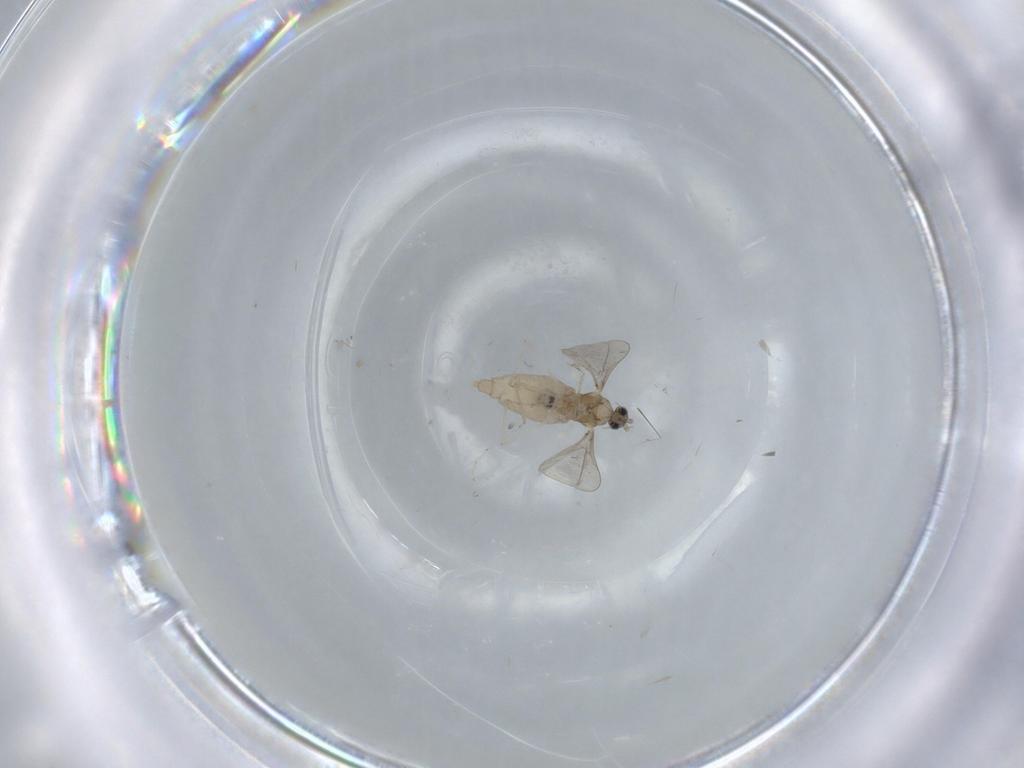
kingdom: Animalia
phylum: Arthropoda
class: Insecta
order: Diptera
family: Cecidomyiidae
